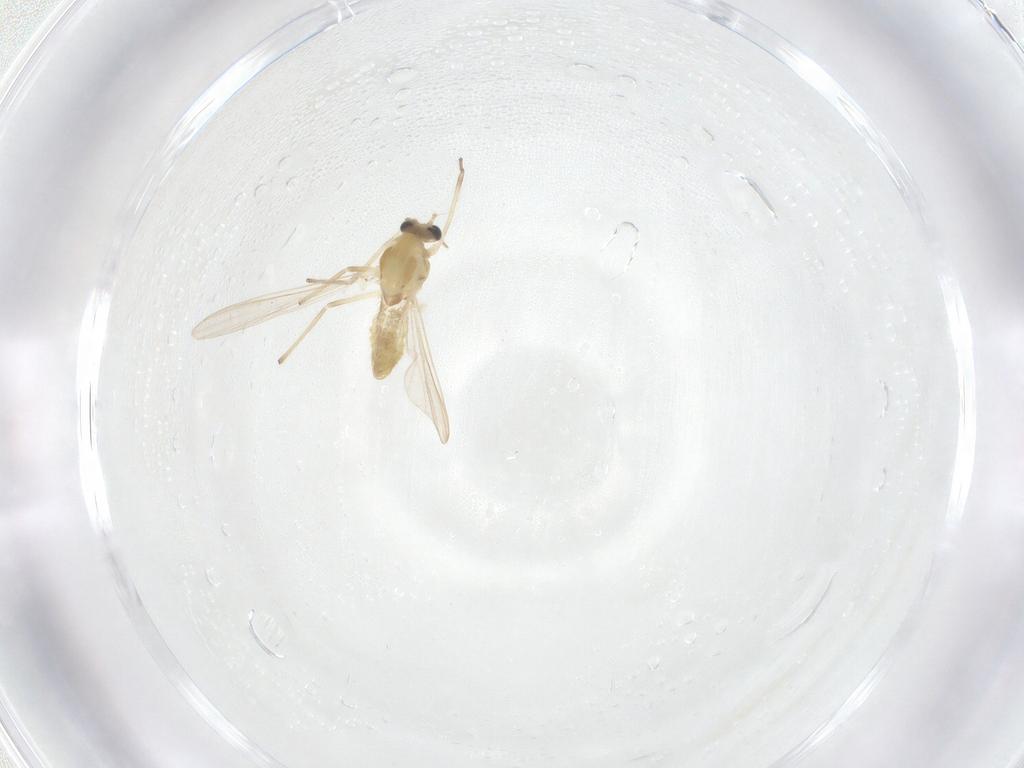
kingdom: Animalia
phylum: Arthropoda
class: Insecta
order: Diptera
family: Chironomidae
